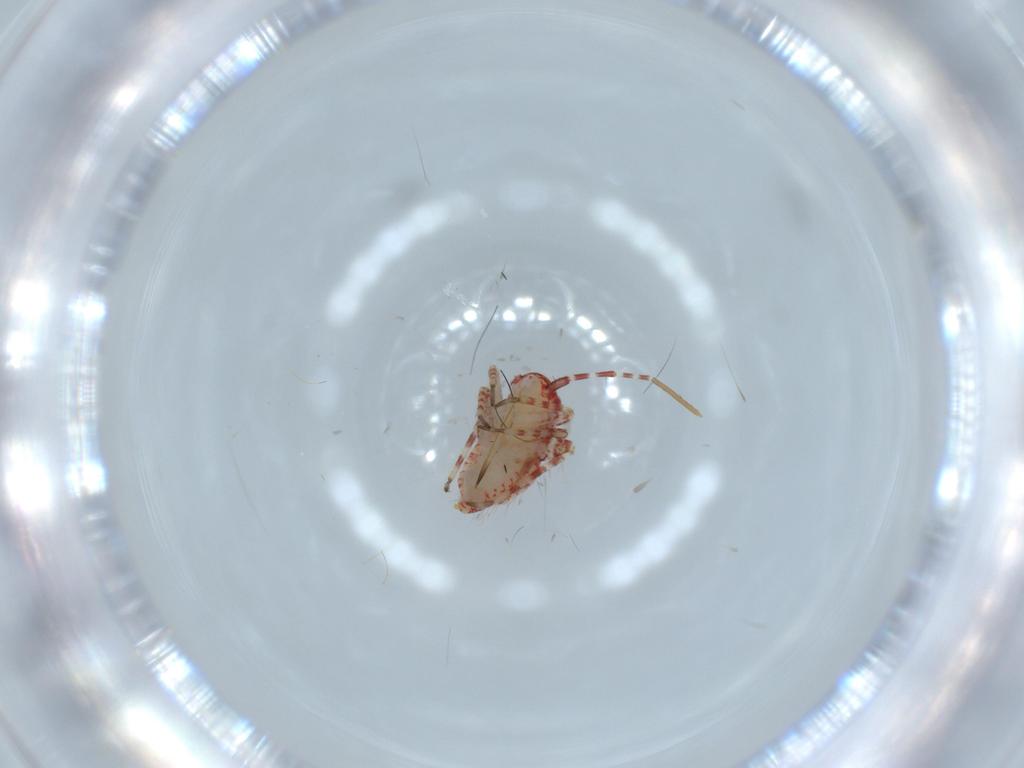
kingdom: Animalia
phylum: Arthropoda
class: Insecta
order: Hemiptera
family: Miridae
